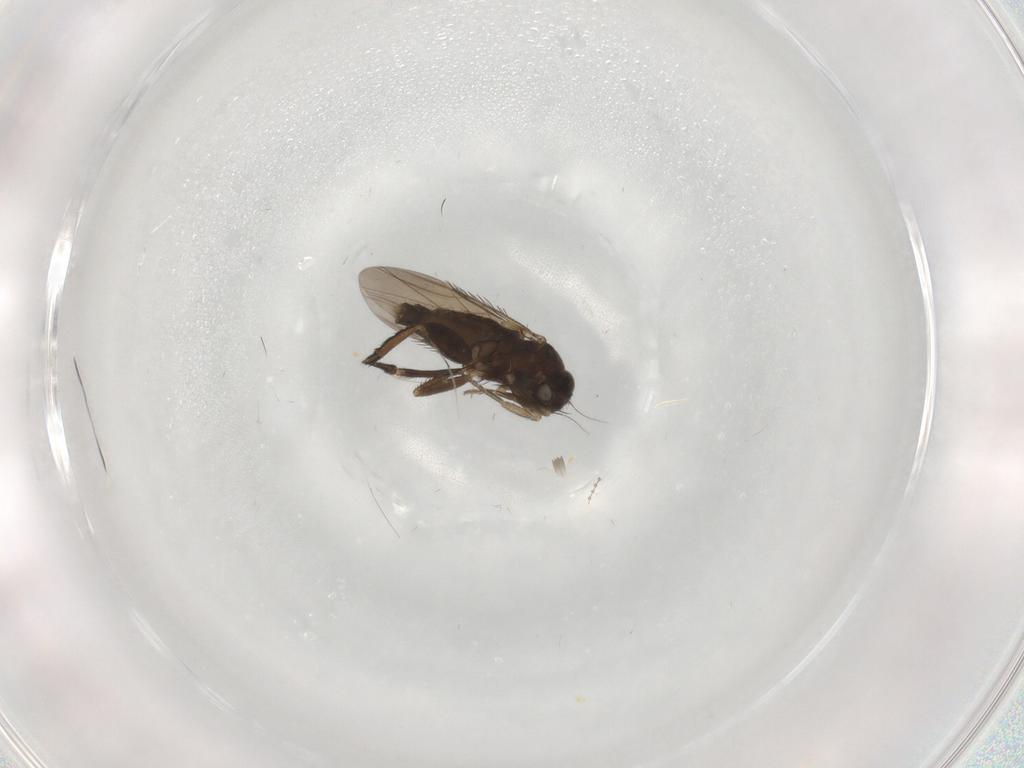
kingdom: Animalia
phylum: Arthropoda
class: Insecta
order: Diptera
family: Sphaeroceridae
